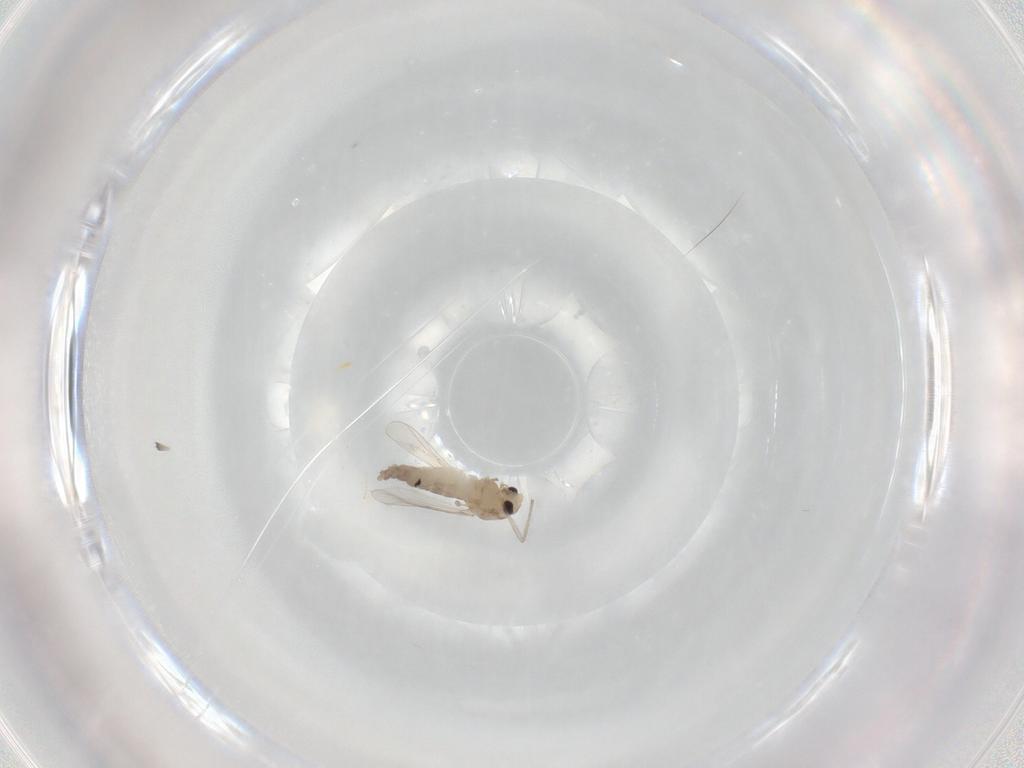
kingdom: Animalia
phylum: Arthropoda
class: Insecta
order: Diptera
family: Chironomidae
